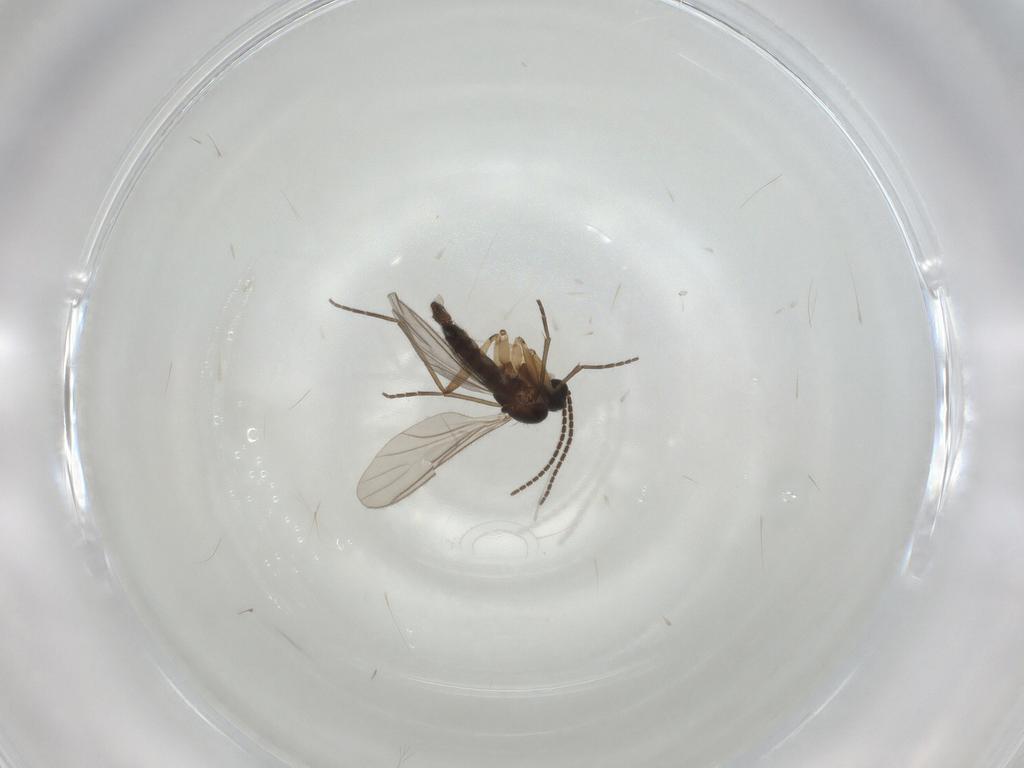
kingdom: Animalia
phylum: Arthropoda
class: Insecta
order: Diptera
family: Sciaridae
